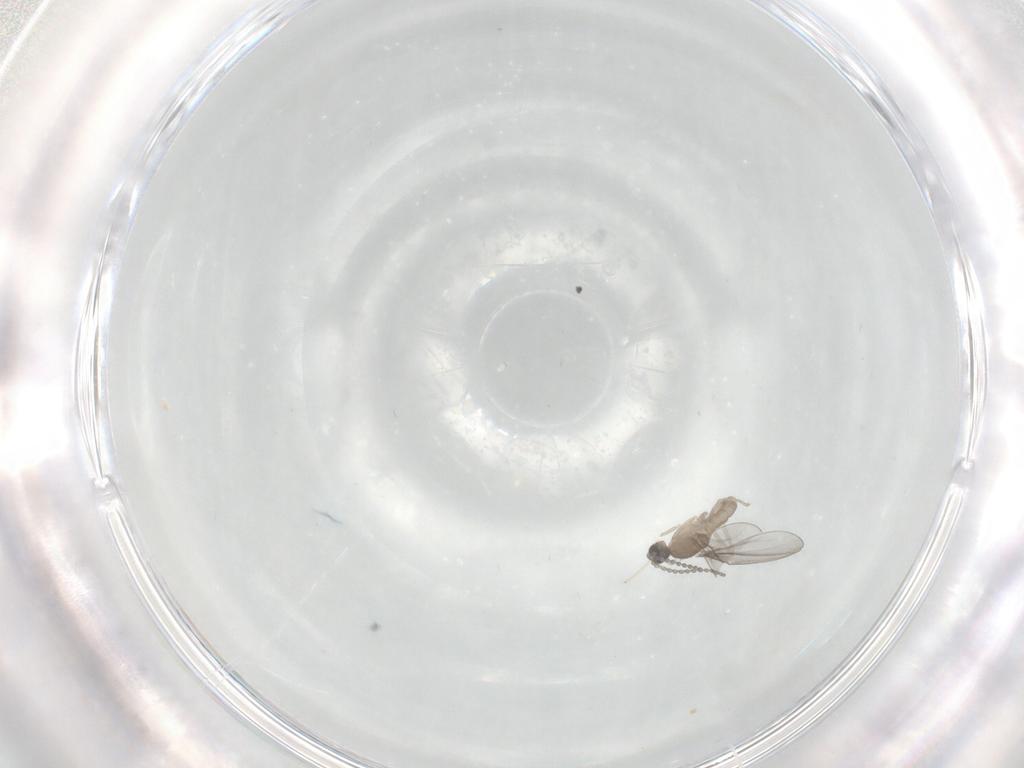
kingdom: Animalia
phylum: Arthropoda
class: Insecta
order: Diptera
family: Cecidomyiidae
